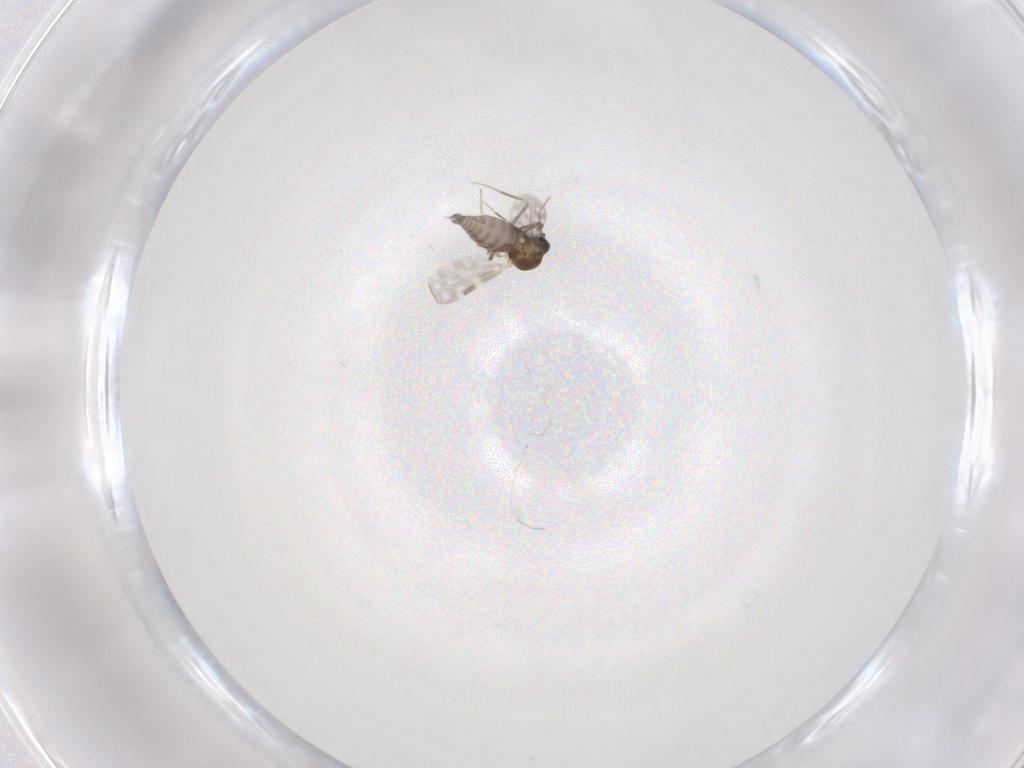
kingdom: Animalia
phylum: Arthropoda
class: Insecta
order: Diptera
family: Ceratopogonidae
